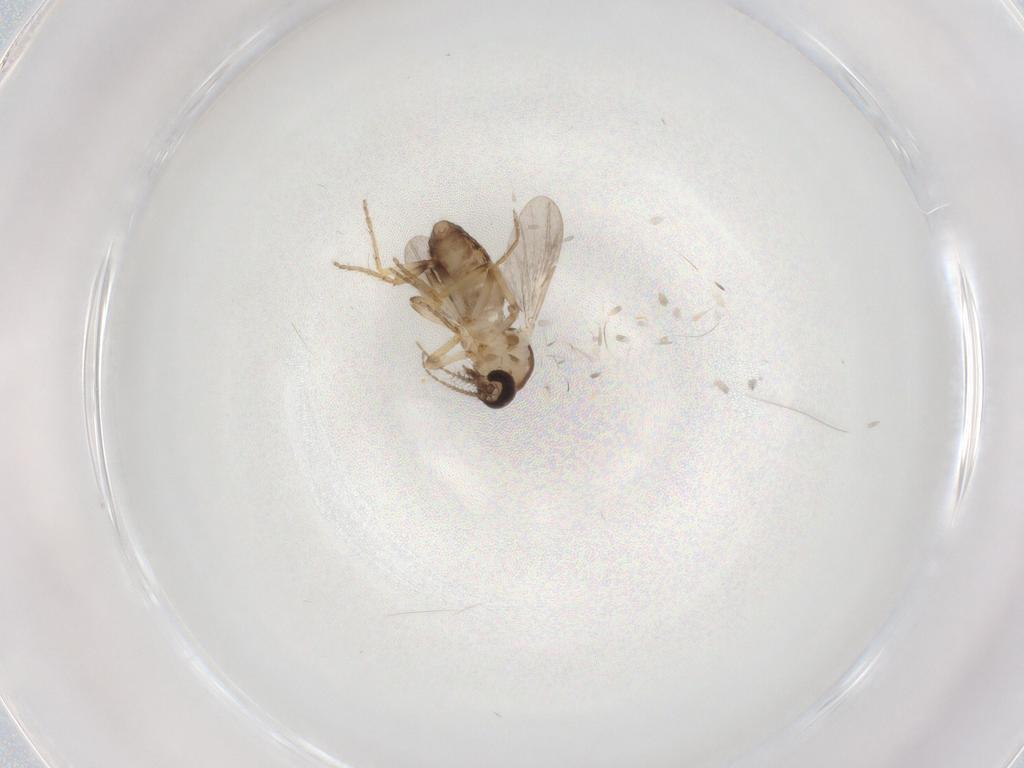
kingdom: Animalia
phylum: Arthropoda
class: Insecta
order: Diptera
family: Ceratopogonidae
